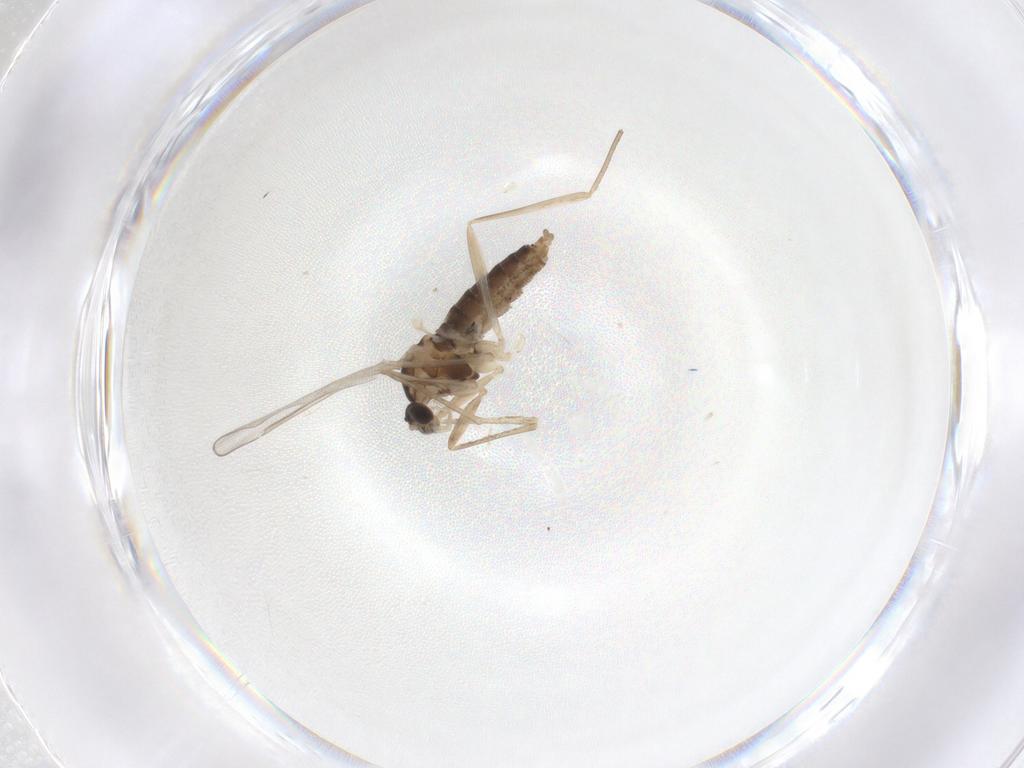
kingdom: Animalia
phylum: Arthropoda
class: Insecta
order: Diptera
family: Cecidomyiidae
